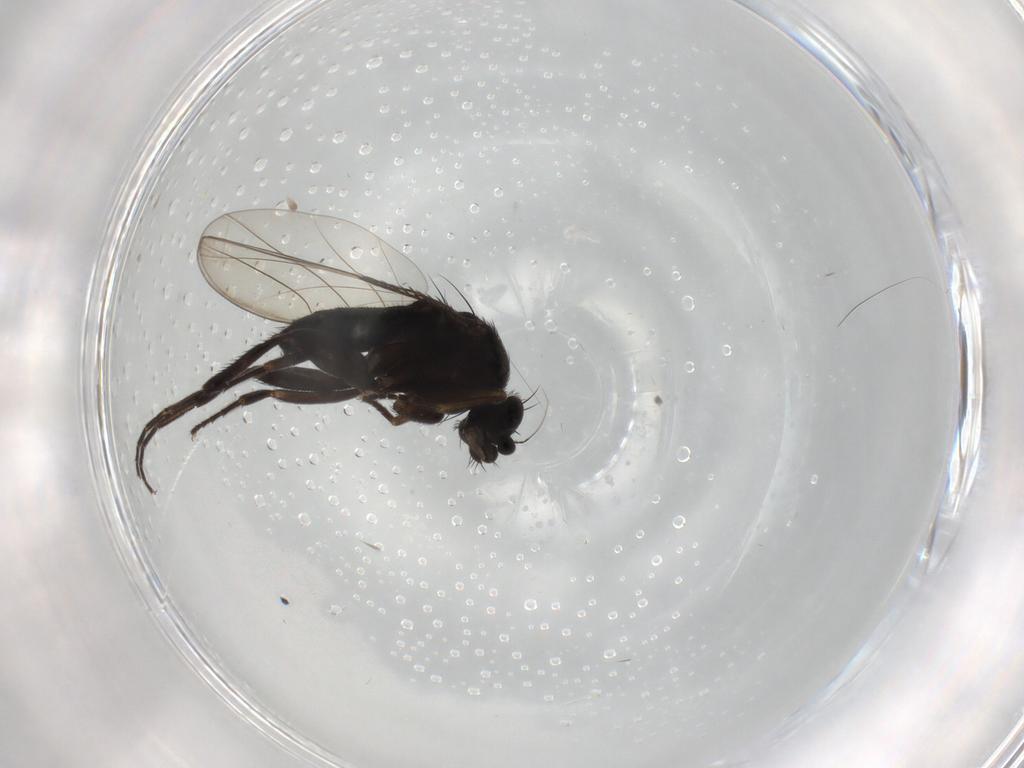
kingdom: Animalia
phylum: Arthropoda
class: Insecta
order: Diptera
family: Phoridae
